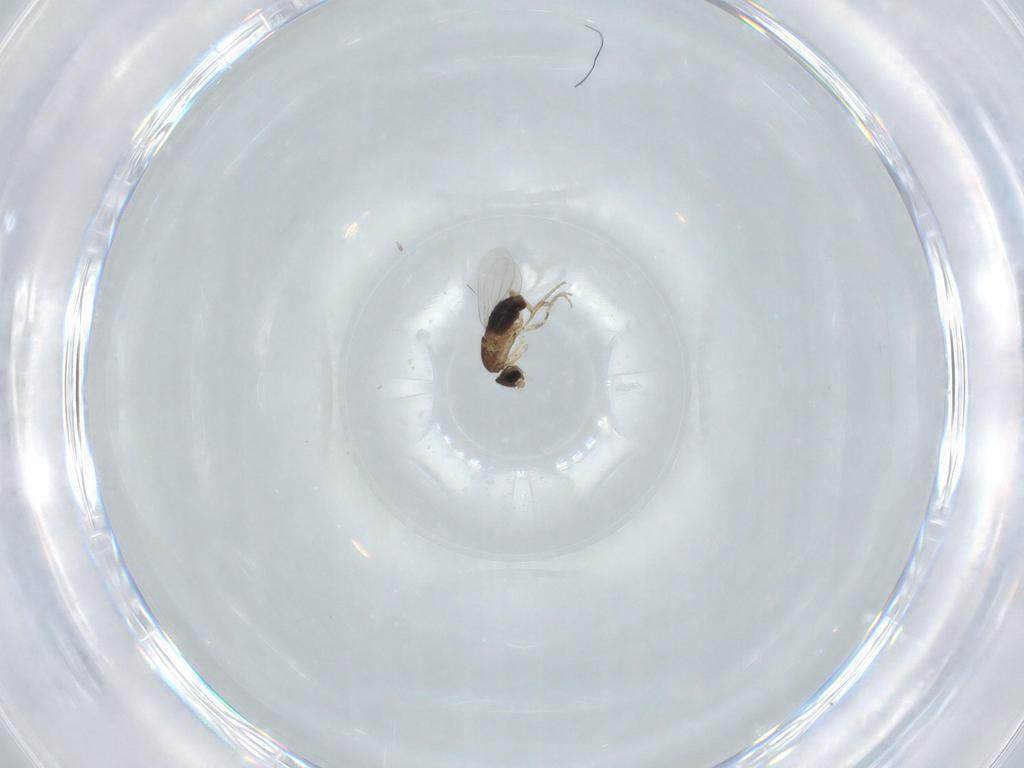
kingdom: Animalia
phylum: Arthropoda
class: Insecta
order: Diptera
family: Phoridae
